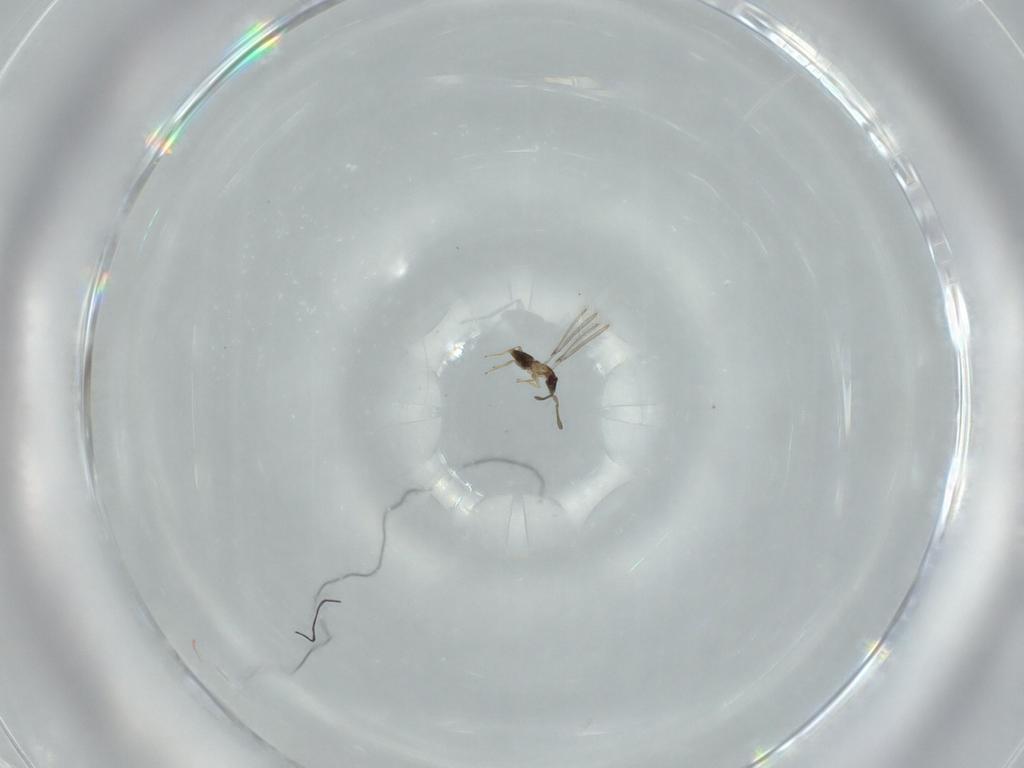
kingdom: Animalia
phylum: Arthropoda
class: Insecta
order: Hymenoptera
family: Formicidae
